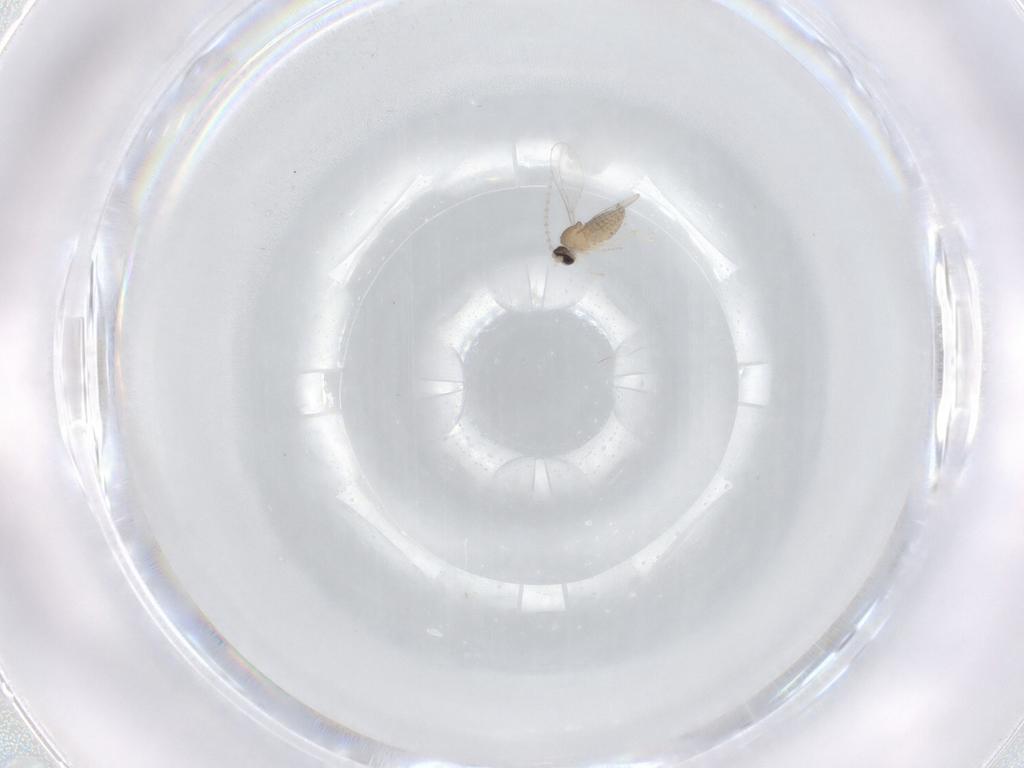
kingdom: Animalia
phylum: Arthropoda
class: Insecta
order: Diptera
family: Cecidomyiidae
